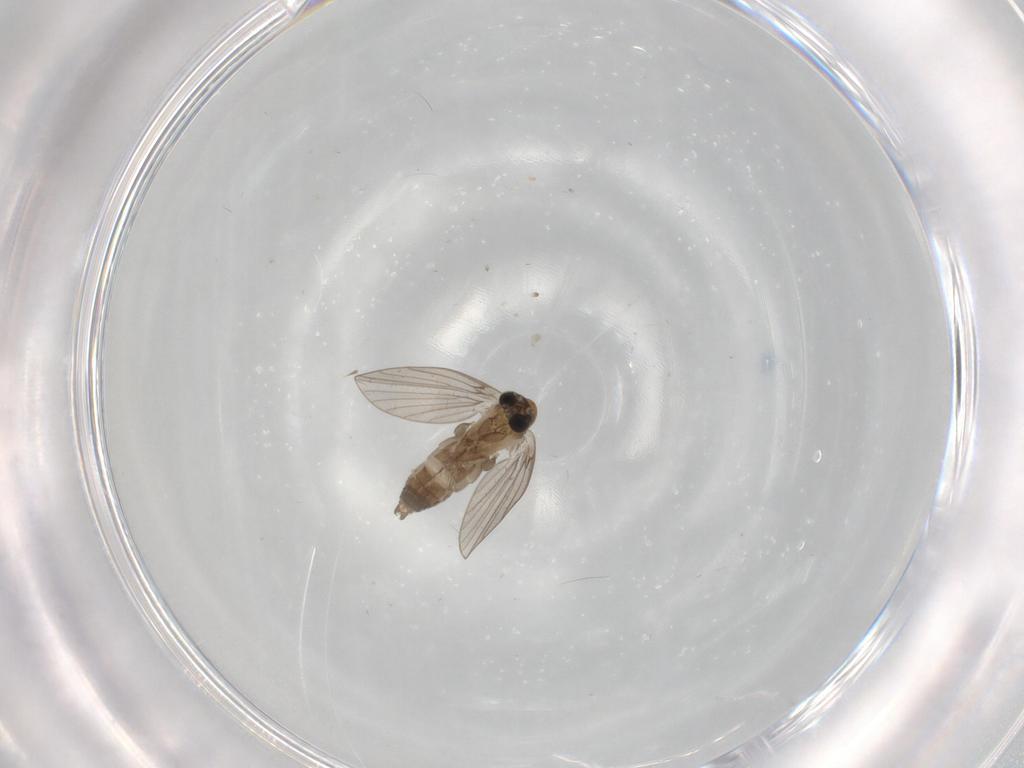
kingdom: Animalia
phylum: Arthropoda
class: Insecta
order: Diptera
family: Psychodidae
